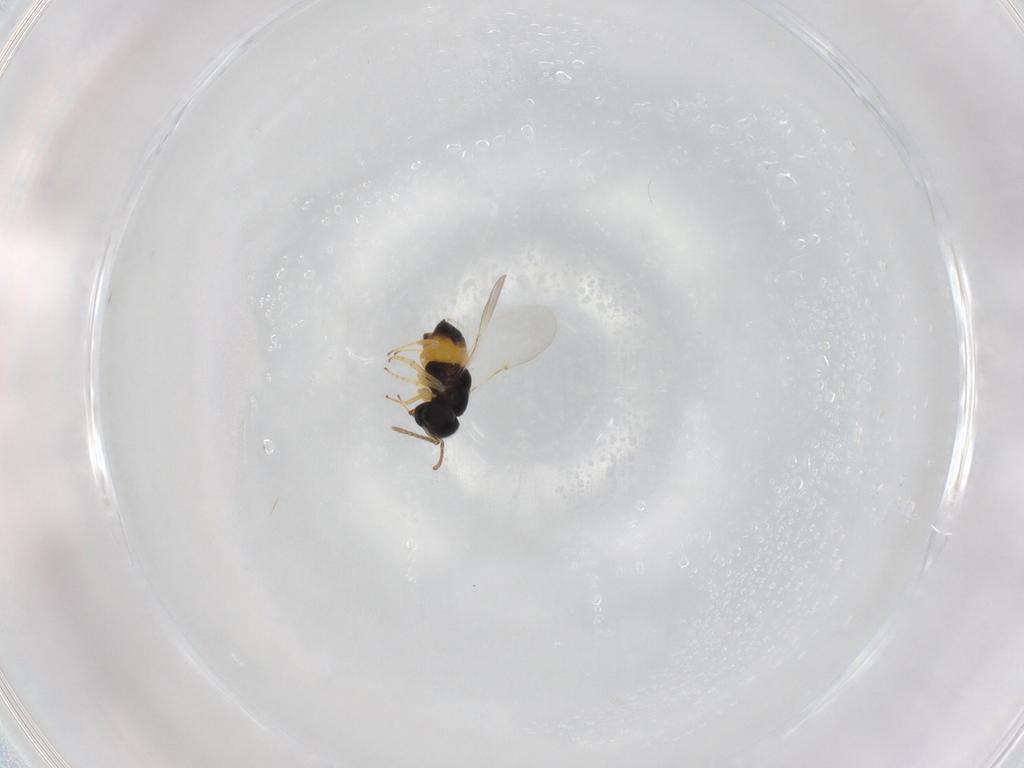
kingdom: Animalia
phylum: Arthropoda
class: Insecta
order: Hymenoptera
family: Encyrtidae
